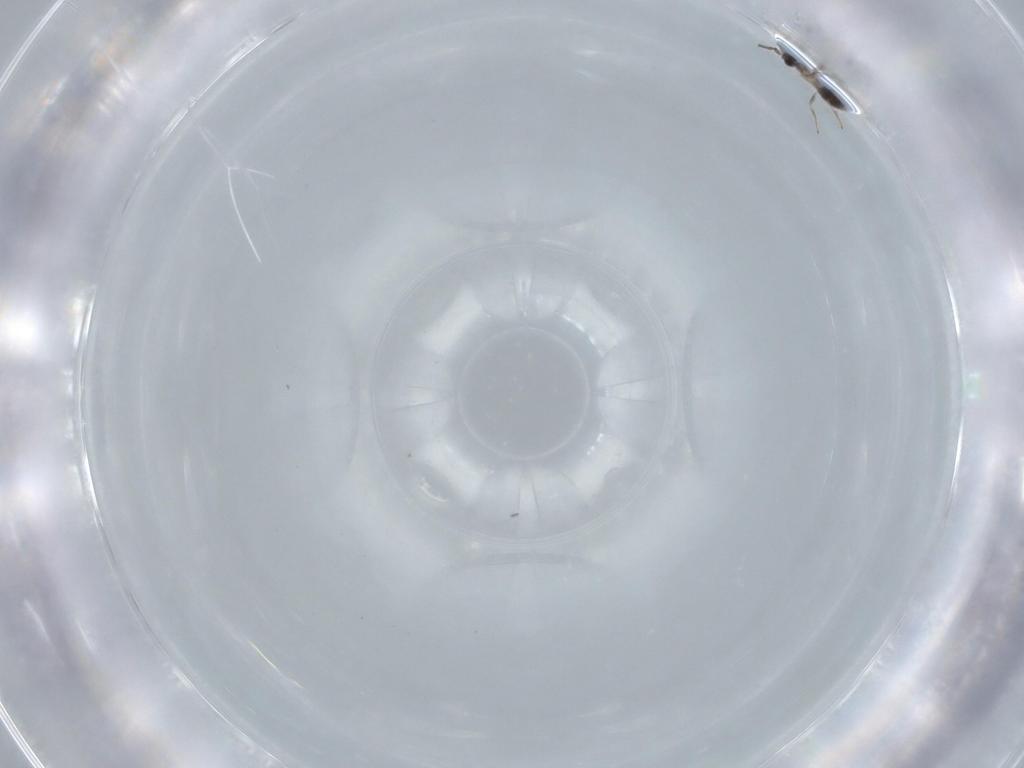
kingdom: Animalia
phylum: Arthropoda
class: Insecta
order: Hymenoptera
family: Mymaridae
